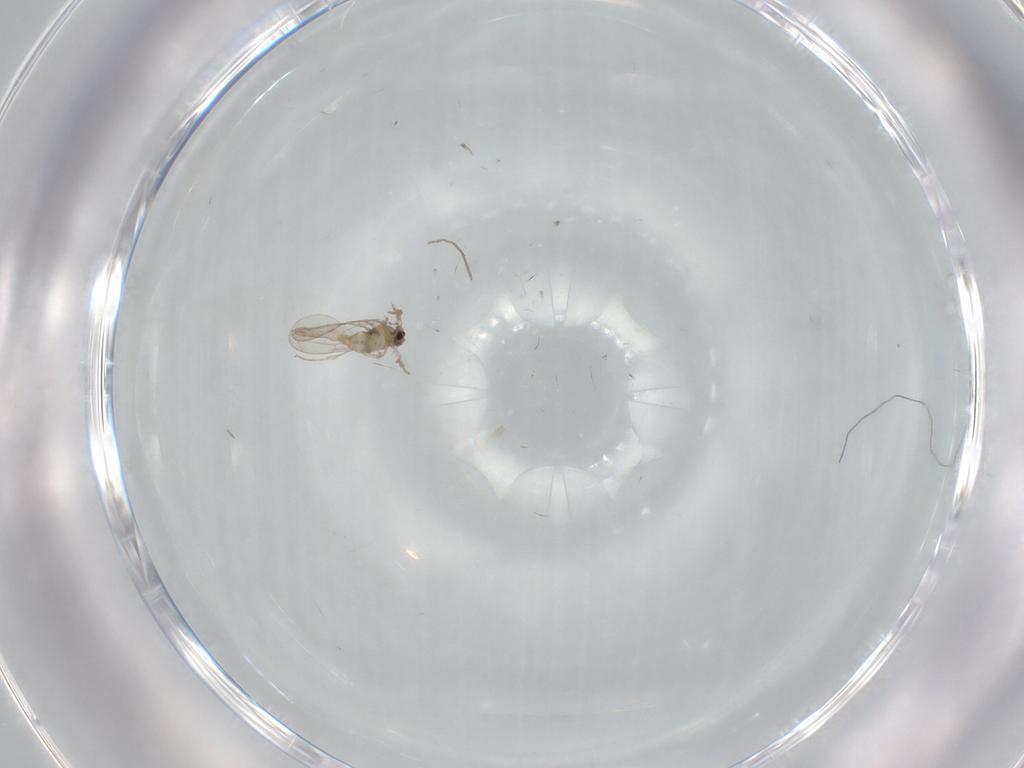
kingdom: Animalia
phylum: Arthropoda
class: Insecta
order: Diptera
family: Cecidomyiidae
